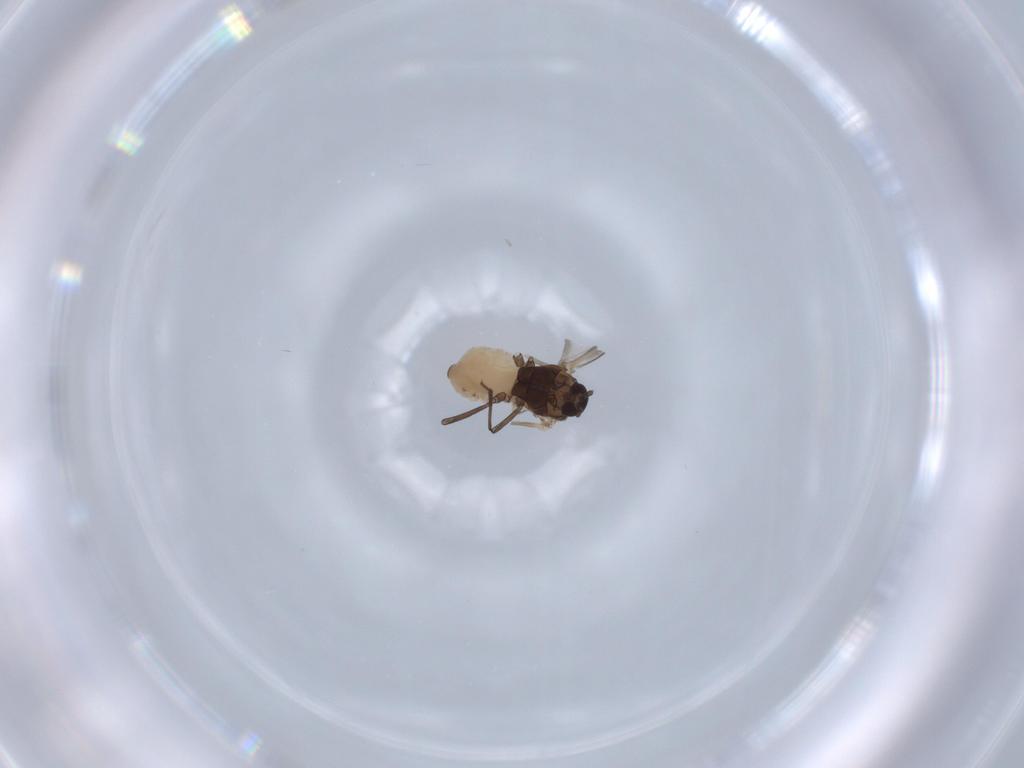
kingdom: Animalia
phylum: Arthropoda
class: Insecta
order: Hemiptera
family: Aphididae
